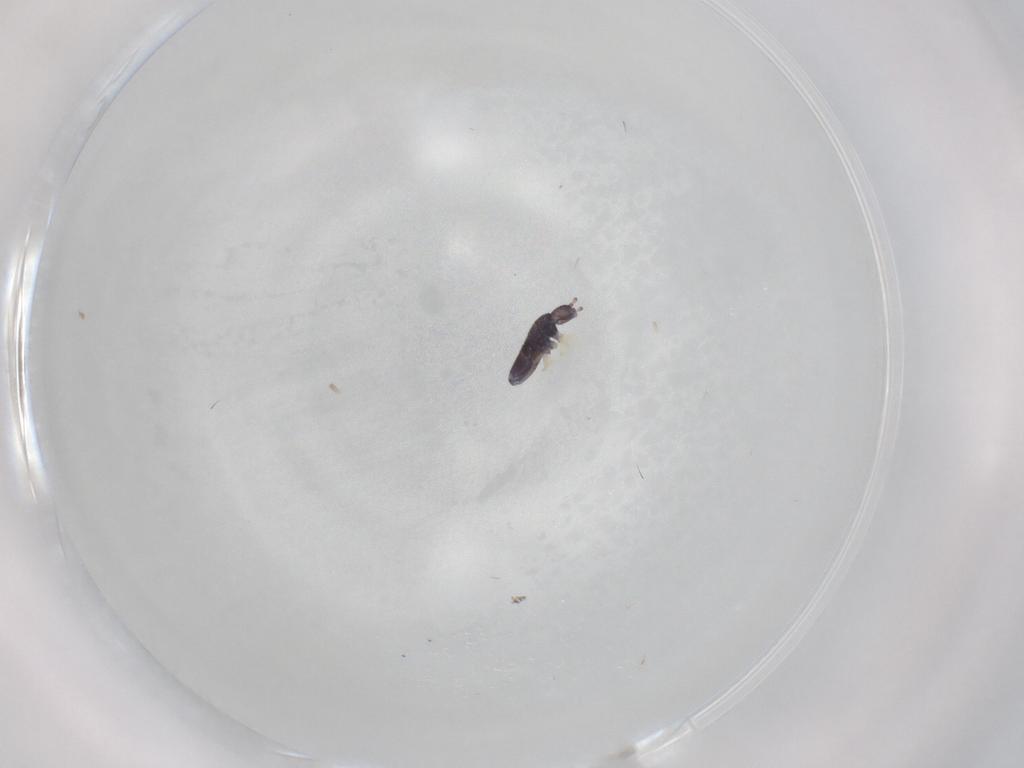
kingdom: Animalia
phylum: Arthropoda
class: Collembola
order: Entomobryomorpha
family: Entomobryidae
